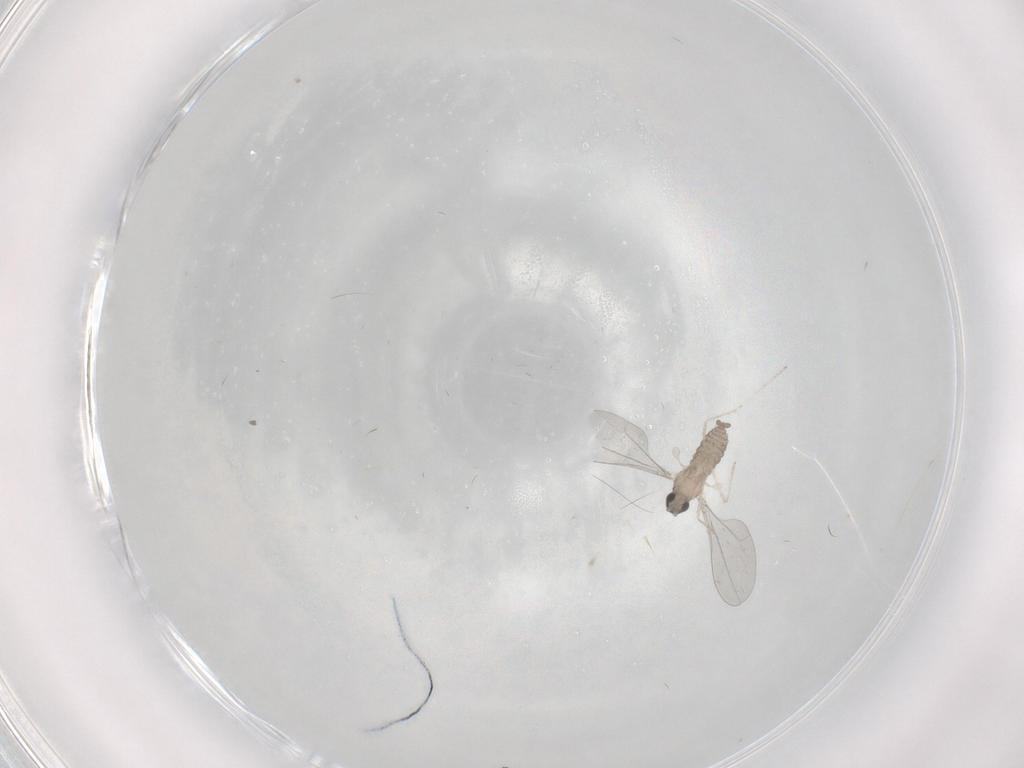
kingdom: Animalia
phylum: Arthropoda
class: Insecta
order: Diptera
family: Cecidomyiidae
